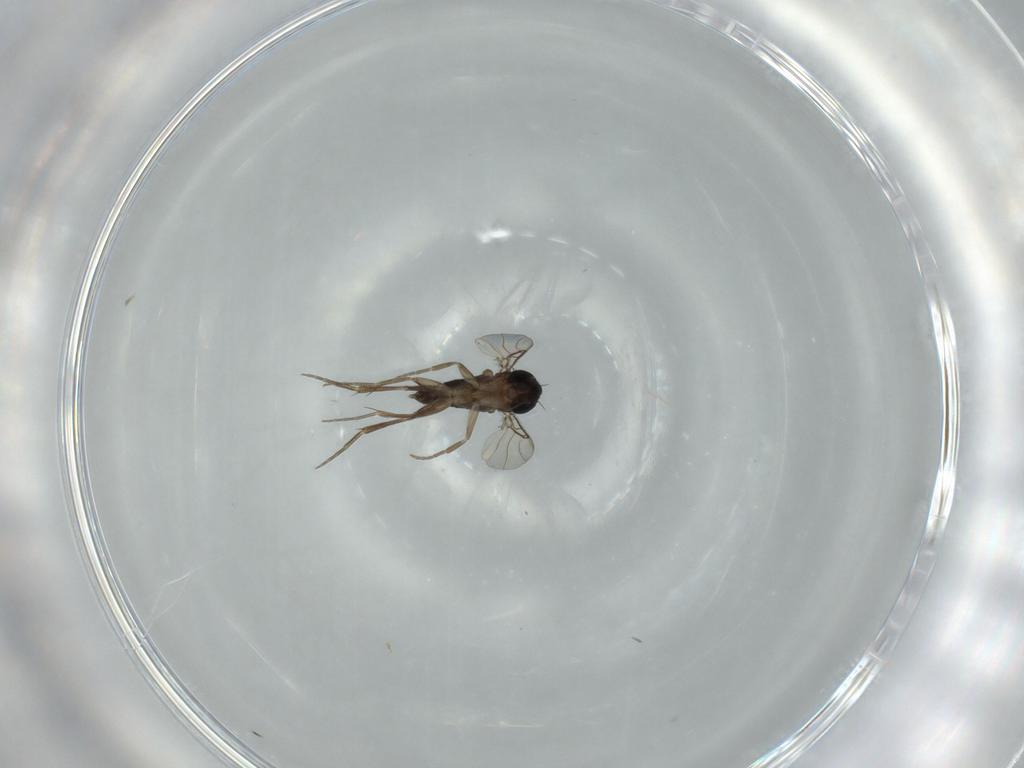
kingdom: Animalia
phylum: Arthropoda
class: Insecta
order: Diptera
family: Phoridae
